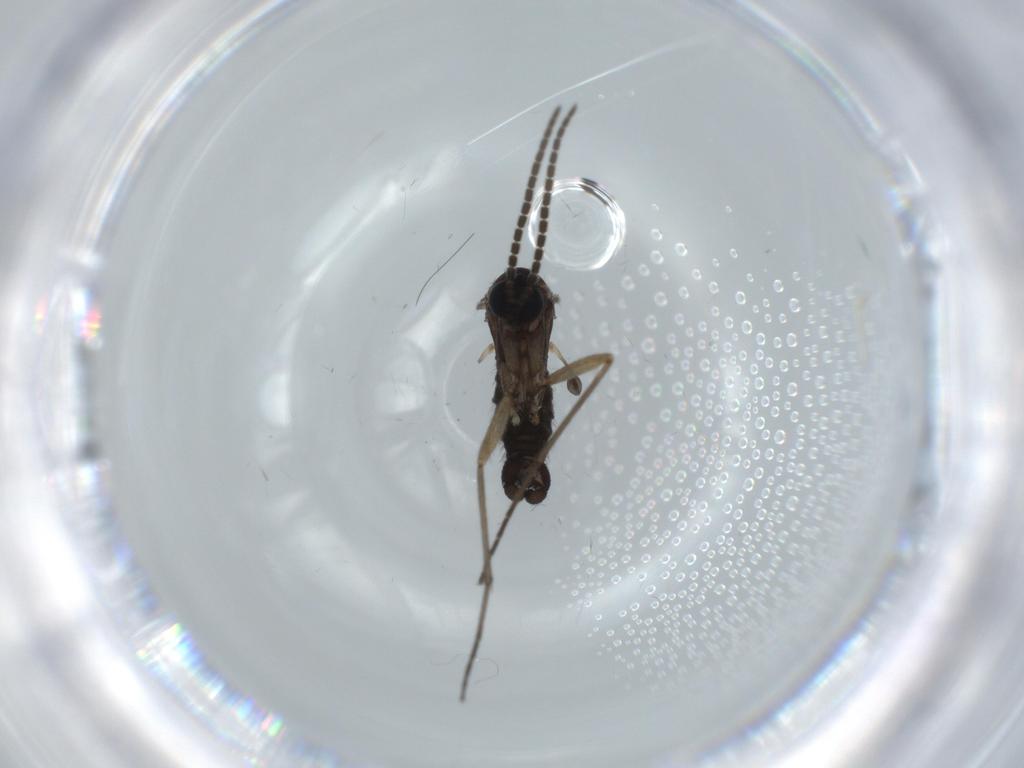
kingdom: Animalia
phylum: Arthropoda
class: Insecta
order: Diptera
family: Sciaridae
